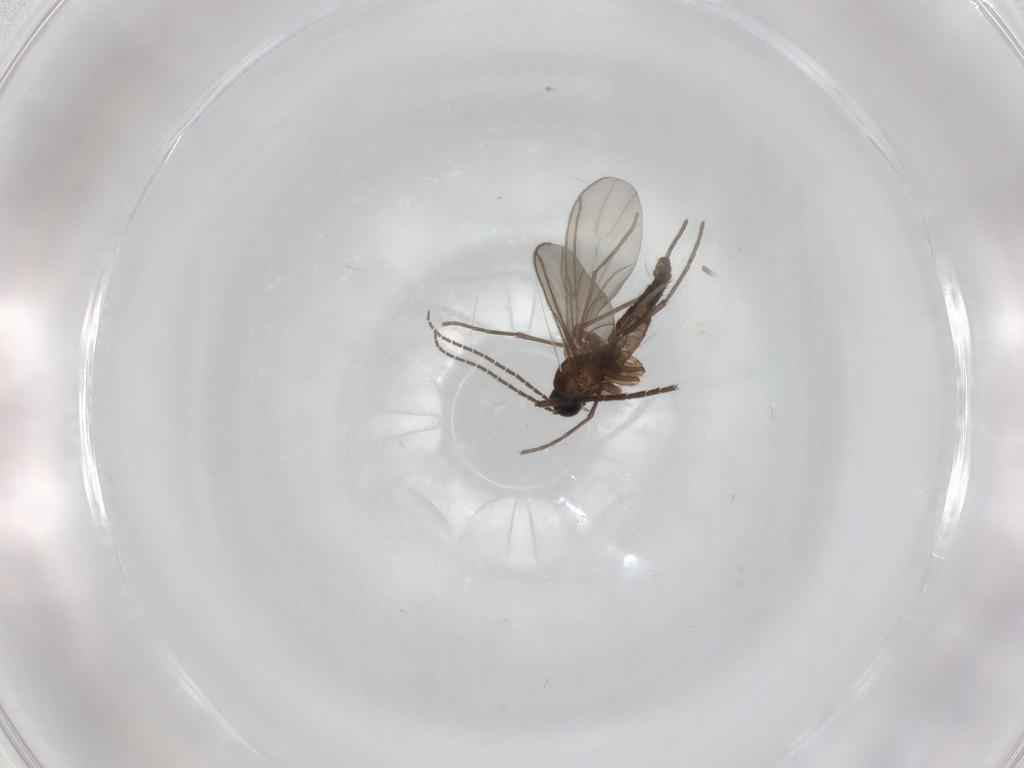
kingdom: Animalia
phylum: Arthropoda
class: Insecta
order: Diptera
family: Sciaridae
